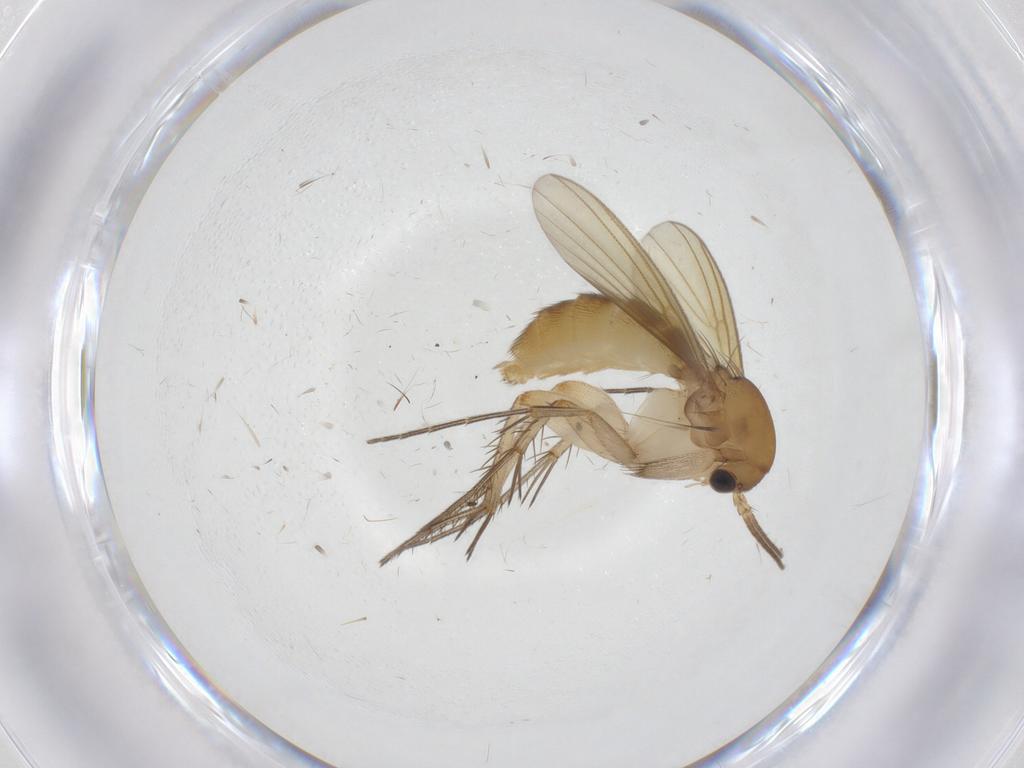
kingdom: Animalia
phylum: Arthropoda
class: Insecta
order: Diptera
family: Mycetophilidae
